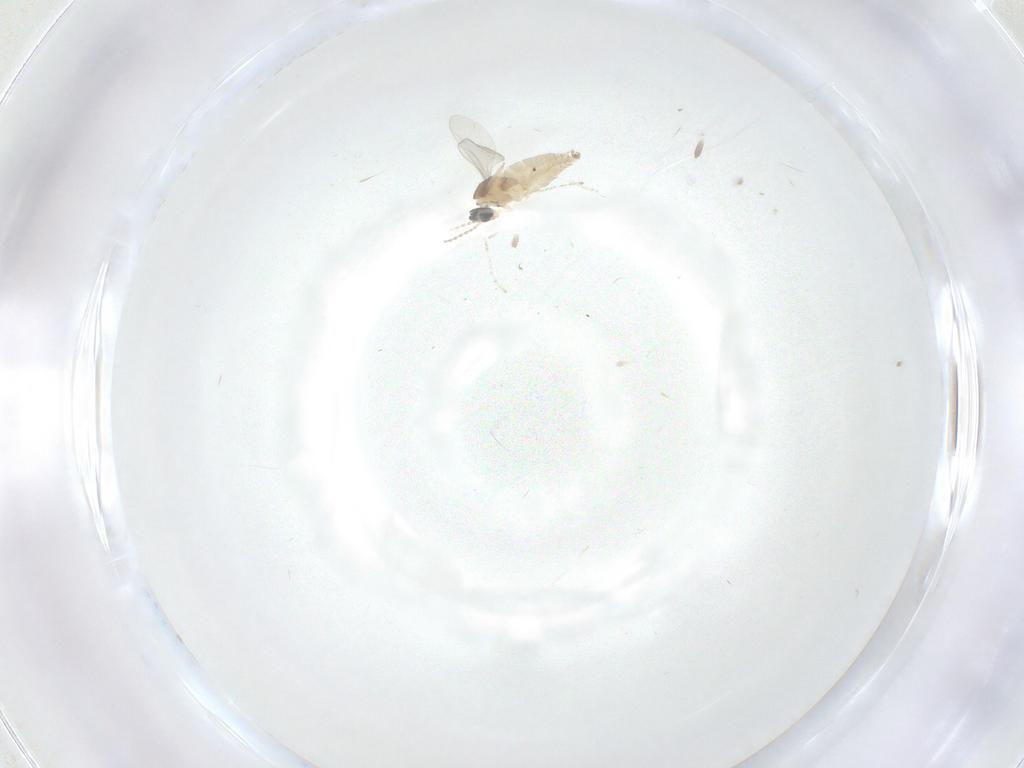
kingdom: Animalia
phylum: Arthropoda
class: Insecta
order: Diptera
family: Cecidomyiidae
